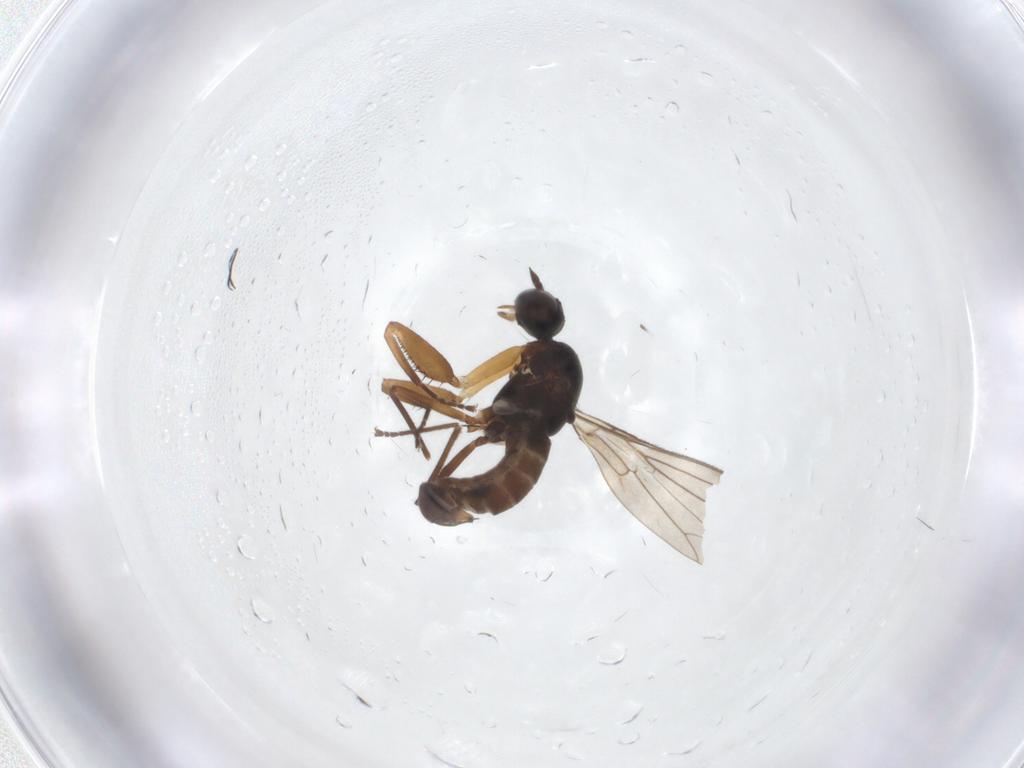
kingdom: Animalia
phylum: Arthropoda
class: Insecta
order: Diptera
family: Empididae
